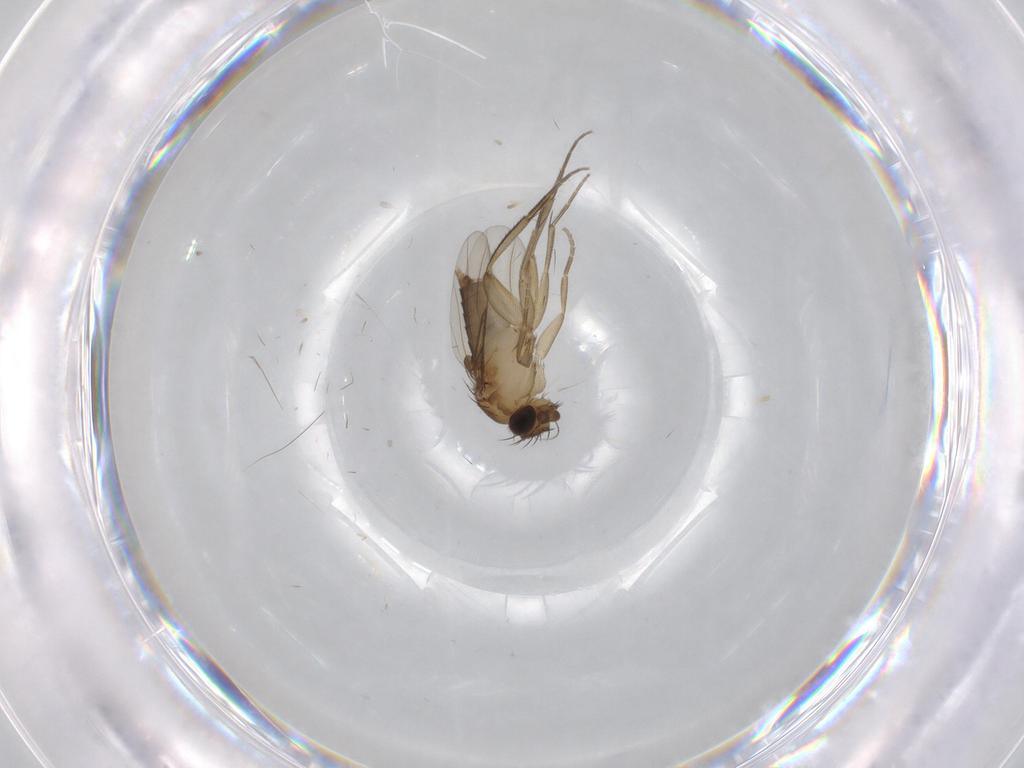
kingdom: Animalia
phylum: Arthropoda
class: Insecta
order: Diptera
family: Phoridae
